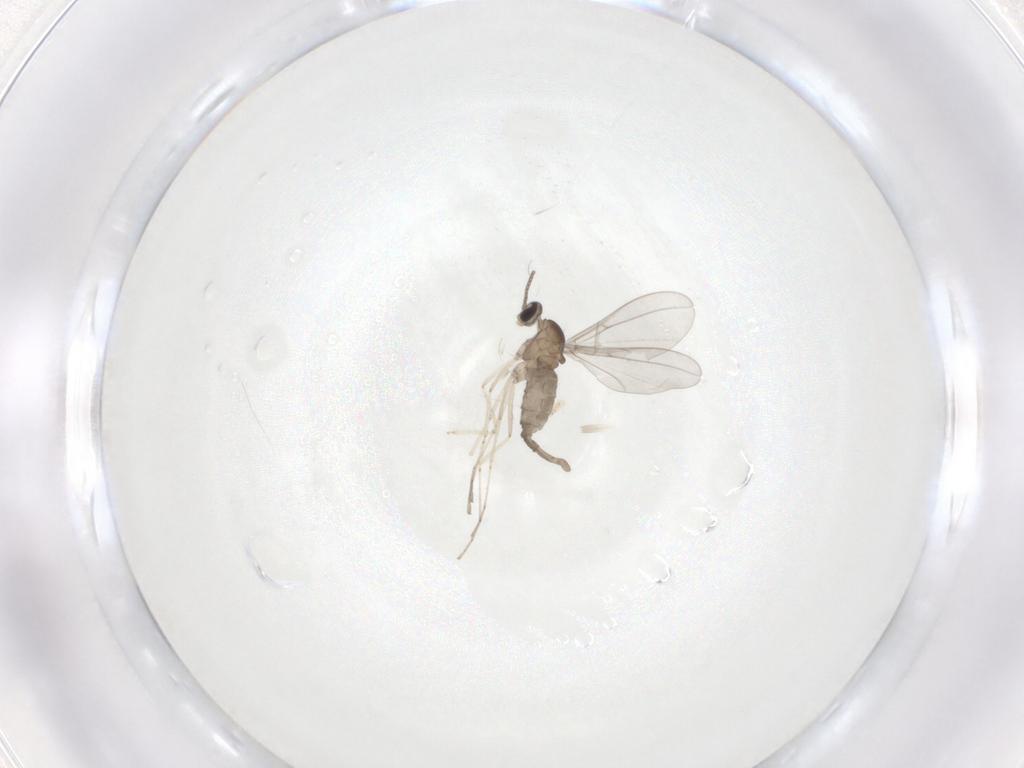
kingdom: Animalia
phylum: Arthropoda
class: Insecta
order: Diptera
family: Cecidomyiidae
